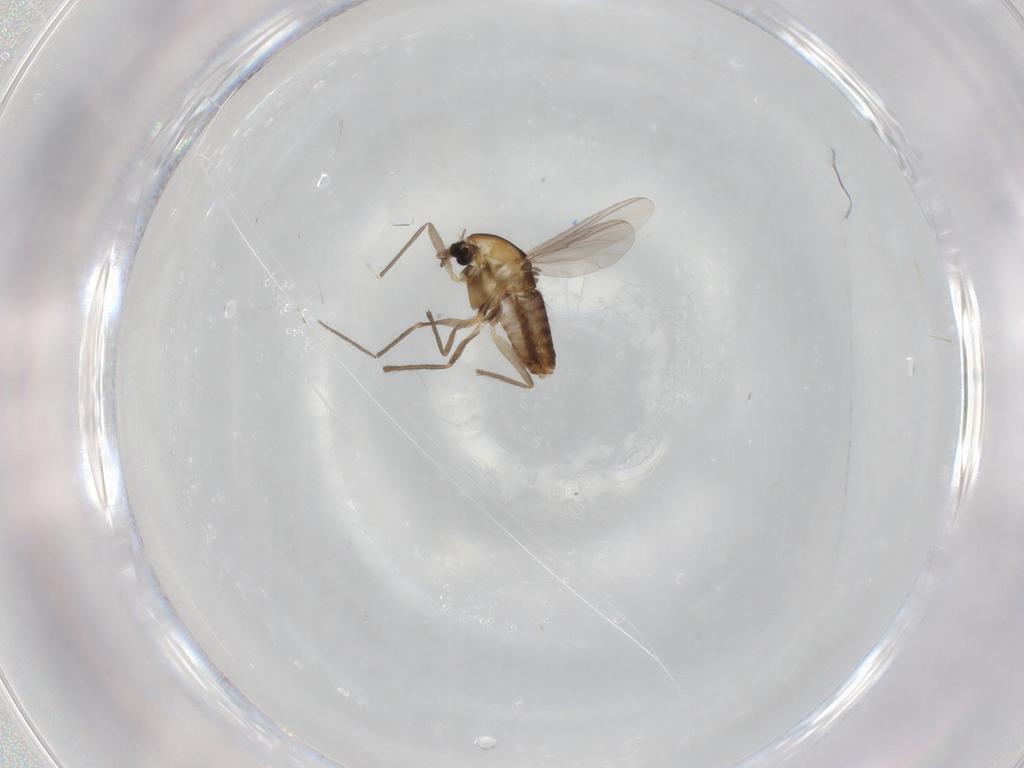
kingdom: Animalia
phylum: Arthropoda
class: Insecta
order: Diptera
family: Chironomidae
